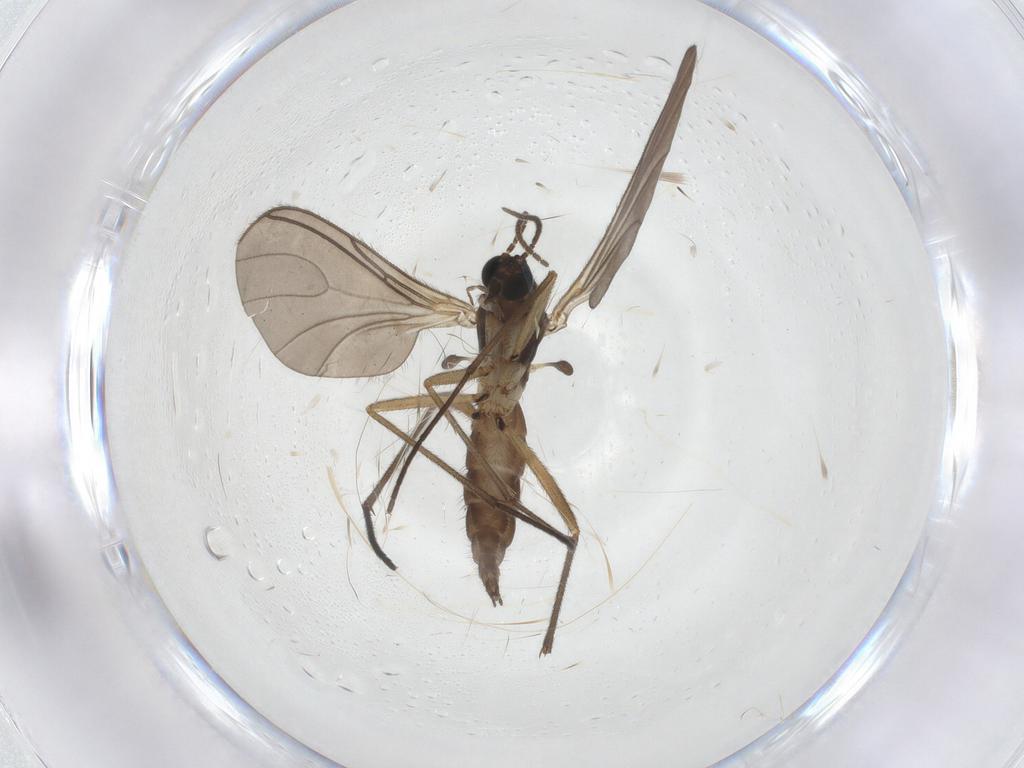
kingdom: Animalia
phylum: Arthropoda
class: Insecta
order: Diptera
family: Sciaridae
